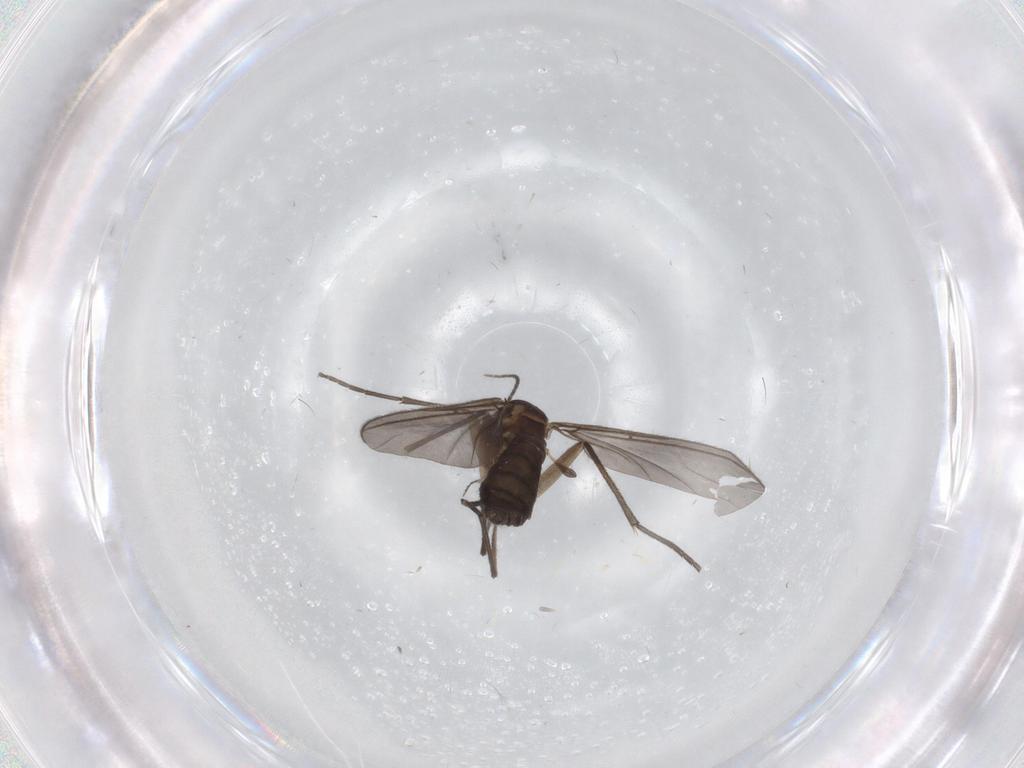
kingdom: Animalia
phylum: Arthropoda
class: Insecta
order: Diptera
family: Sciaridae
